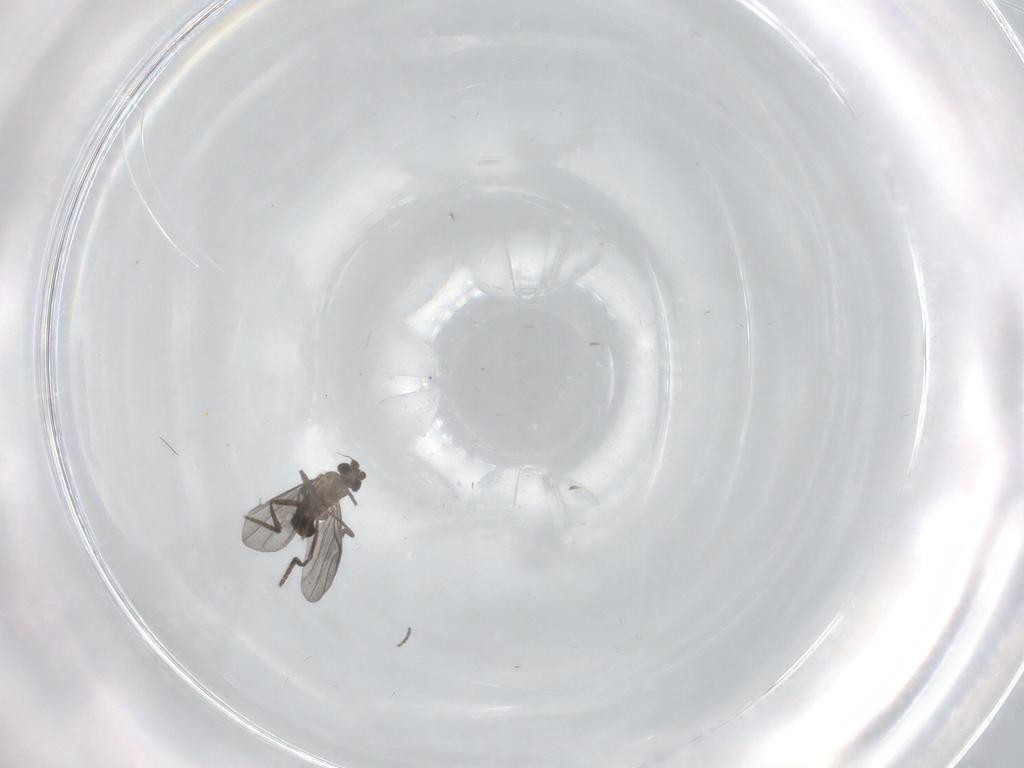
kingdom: Animalia
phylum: Arthropoda
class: Insecta
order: Diptera
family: Phoridae
